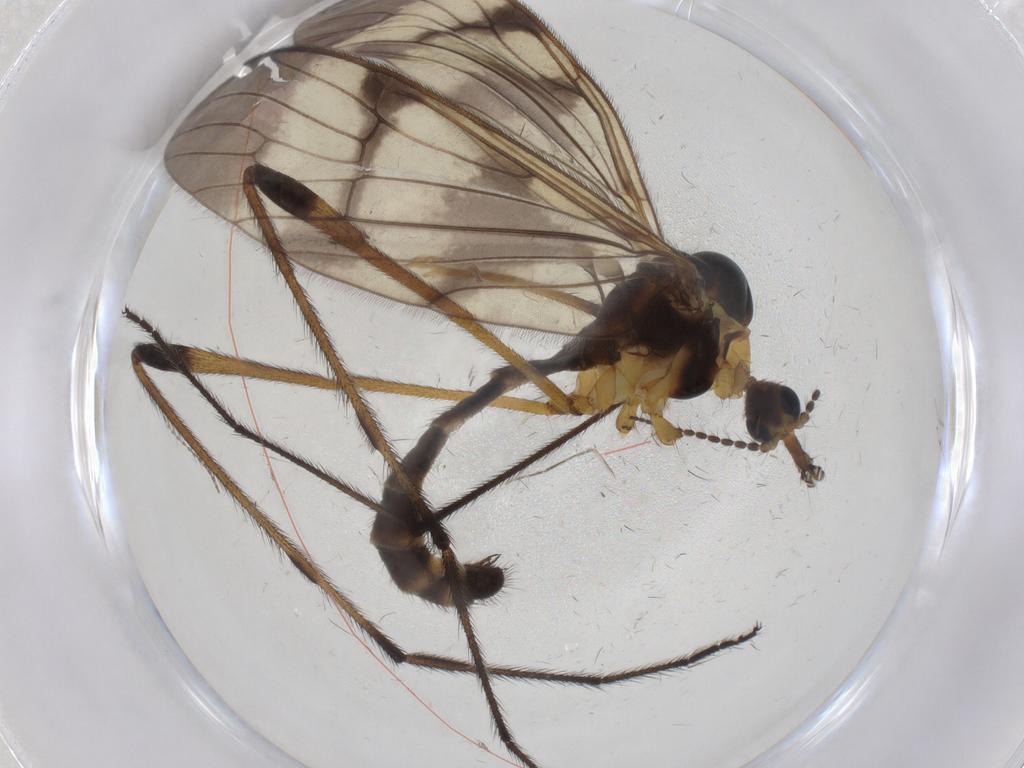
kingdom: Animalia
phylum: Arthropoda
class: Insecta
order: Diptera
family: Limoniidae
